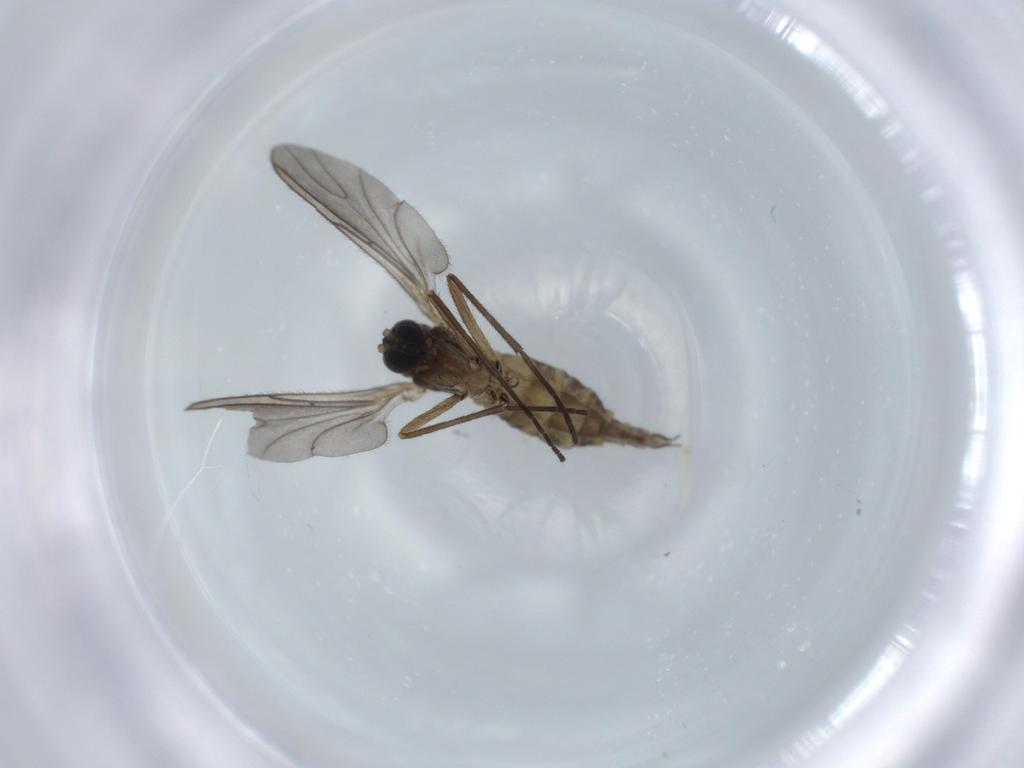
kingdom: Animalia
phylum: Arthropoda
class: Insecta
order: Diptera
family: Sciaridae
